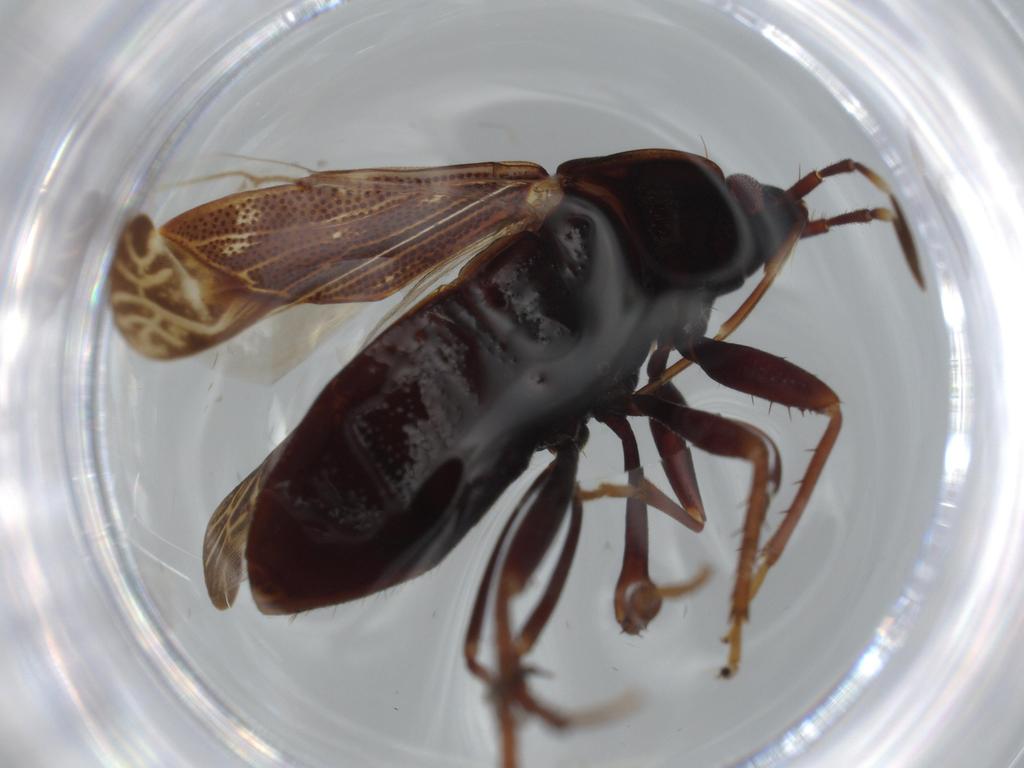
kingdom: Animalia
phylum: Arthropoda
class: Insecta
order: Hemiptera
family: Rhyparochromidae
